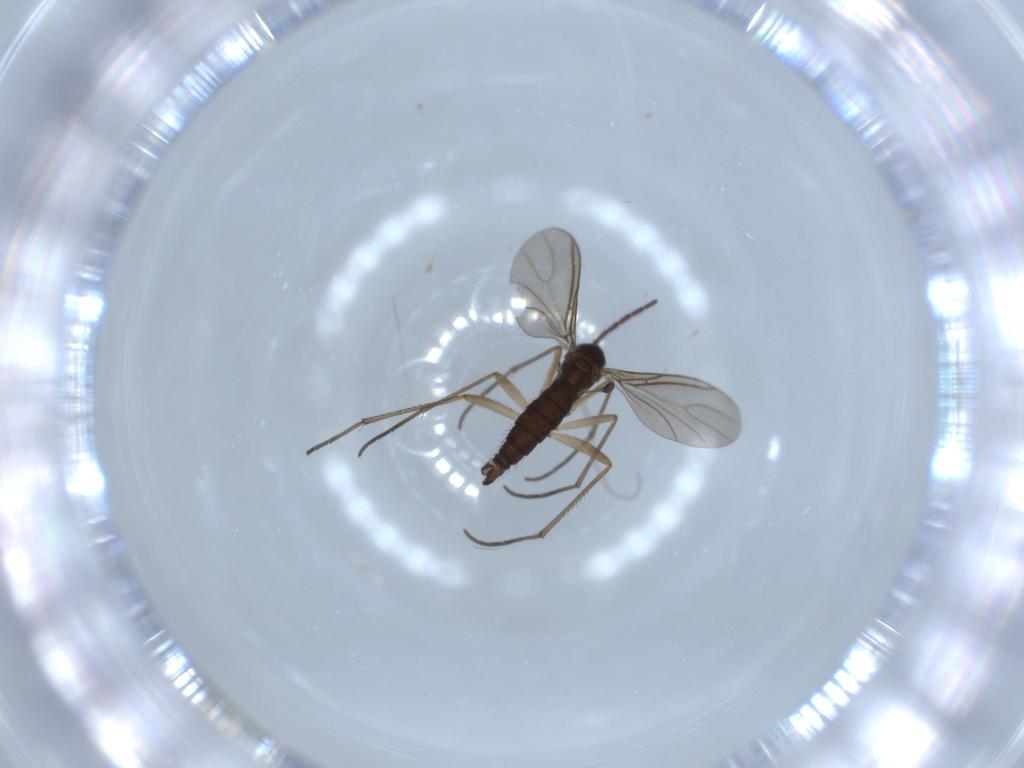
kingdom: Animalia
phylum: Arthropoda
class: Insecta
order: Diptera
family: Sciaridae
